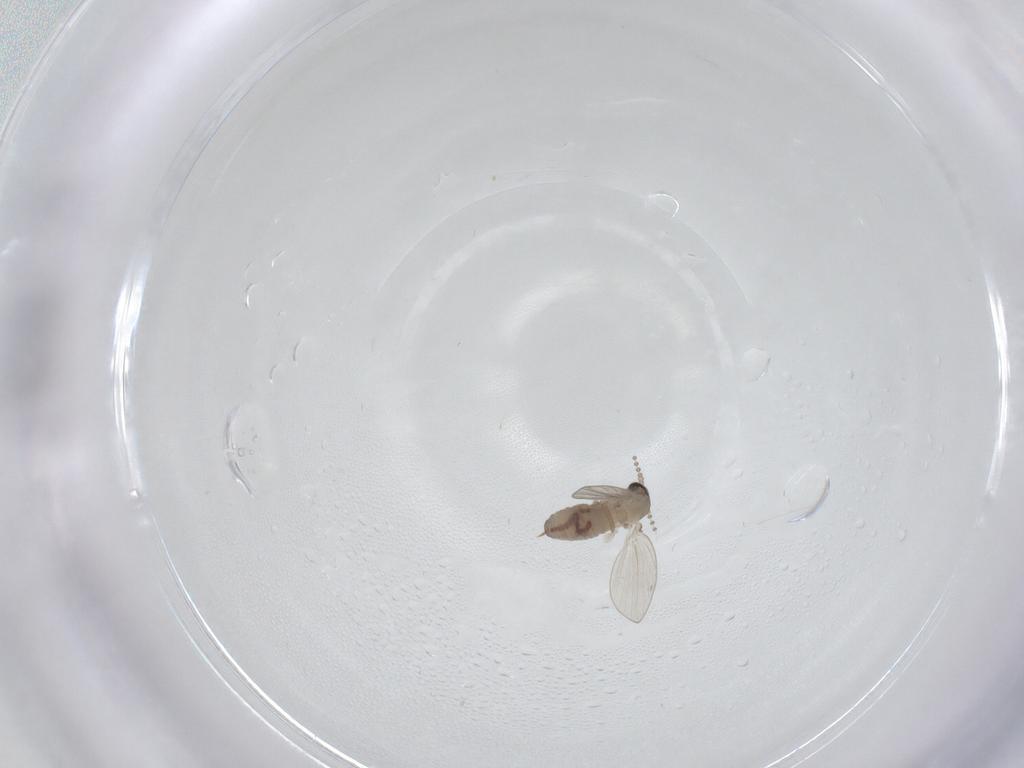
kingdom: Animalia
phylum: Arthropoda
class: Insecta
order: Diptera
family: Psychodidae
